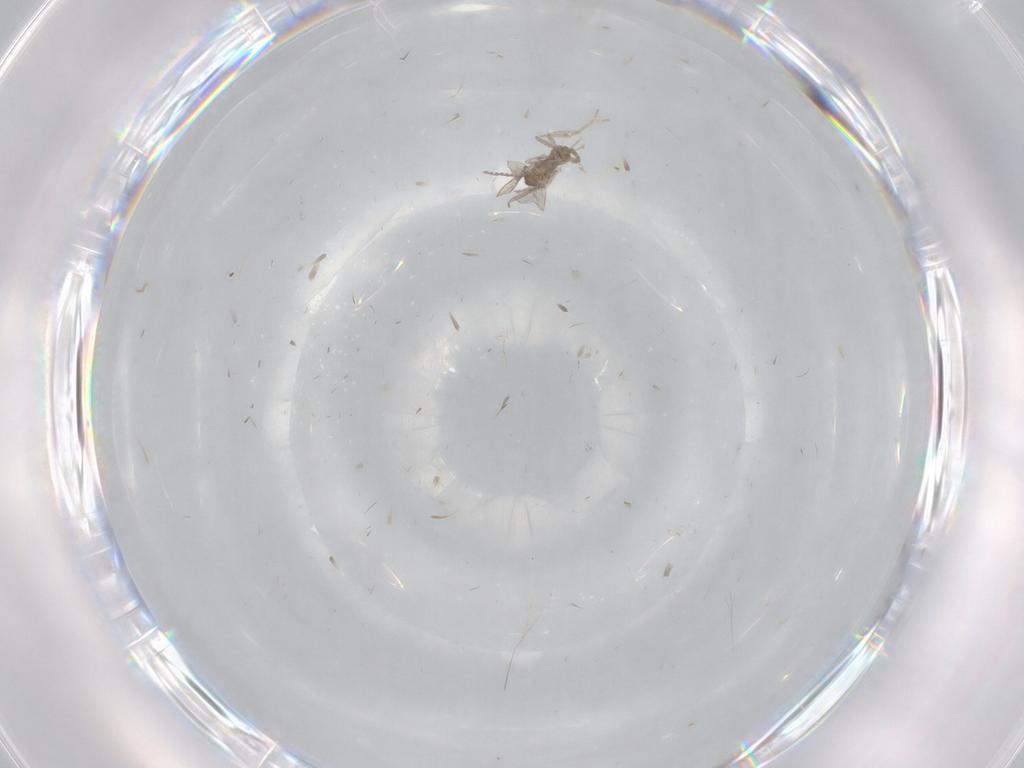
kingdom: Animalia
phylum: Arthropoda
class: Insecta
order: Diptera
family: Cecidomyiidae
